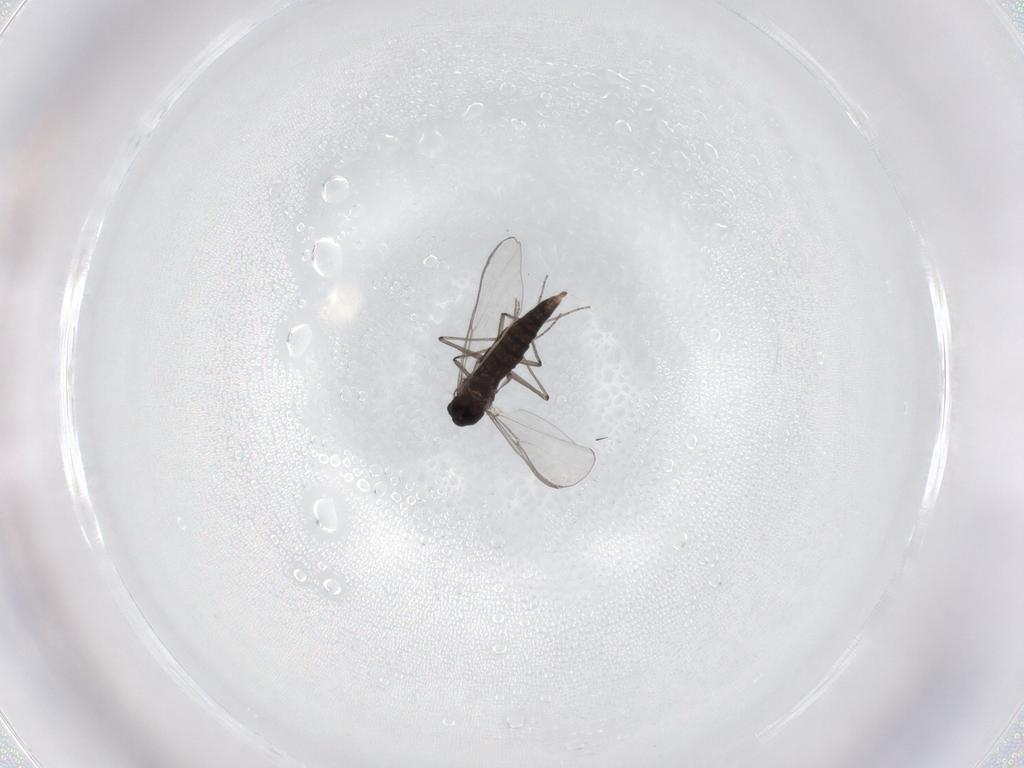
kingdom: Animalia
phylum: Arthropoda
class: Insecta
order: Diptera
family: Chironomidae
